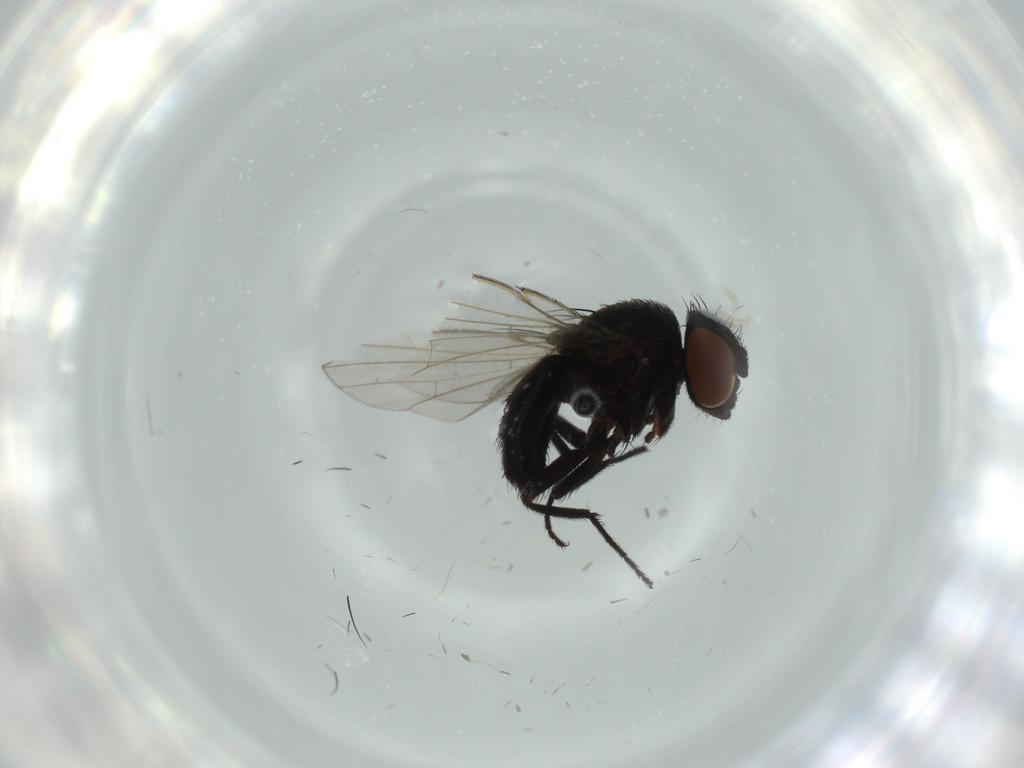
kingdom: Animalia
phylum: Arthropoda
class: Insecta
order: Diptera
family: Milichiidae
